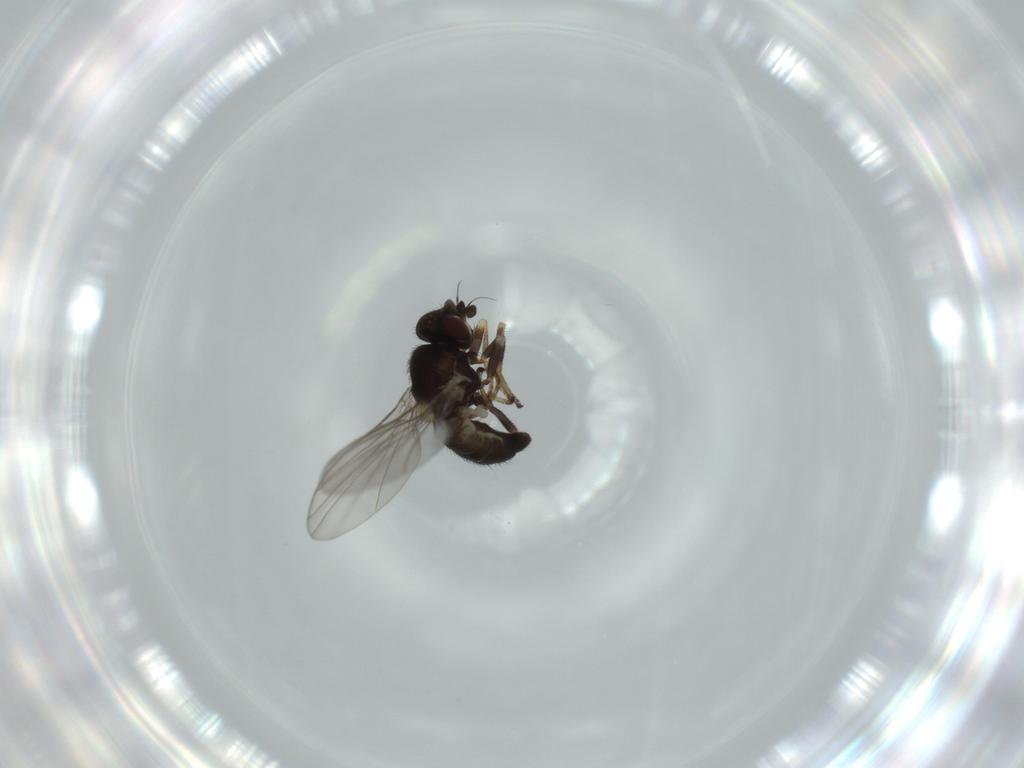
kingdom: Animalia
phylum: Arthropoda
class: Insecta
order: Diptera
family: Agromyzidae
